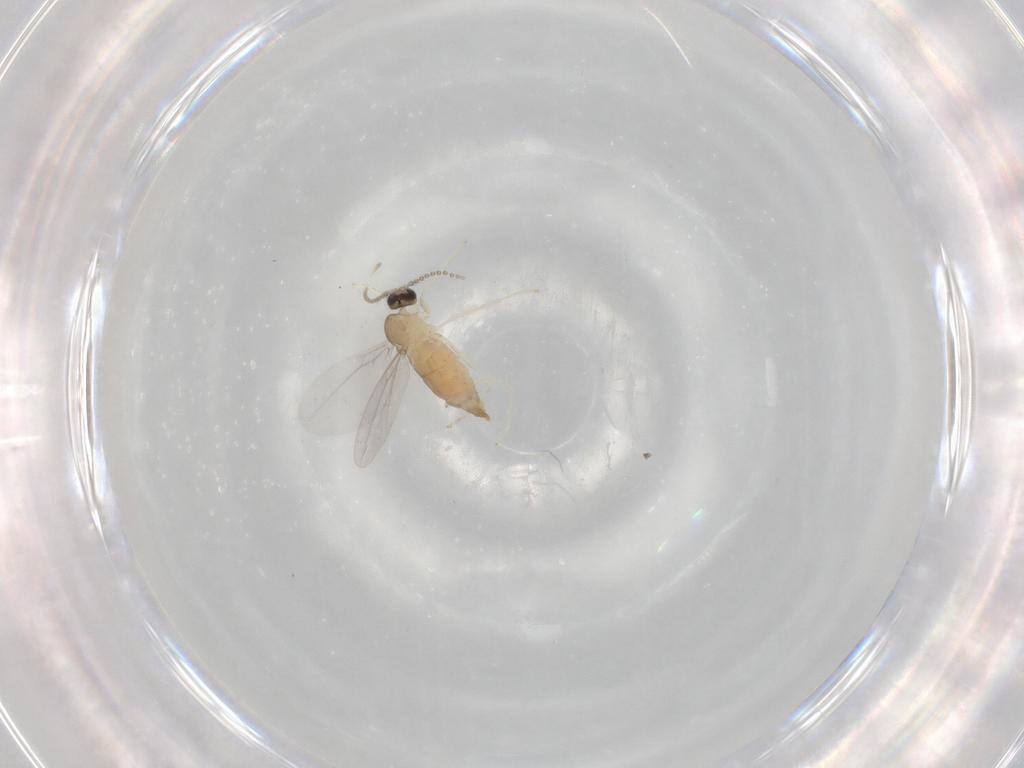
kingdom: Animalia
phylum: Arthropoda
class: Insecta
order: Diptera
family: Cecidomyiidae
